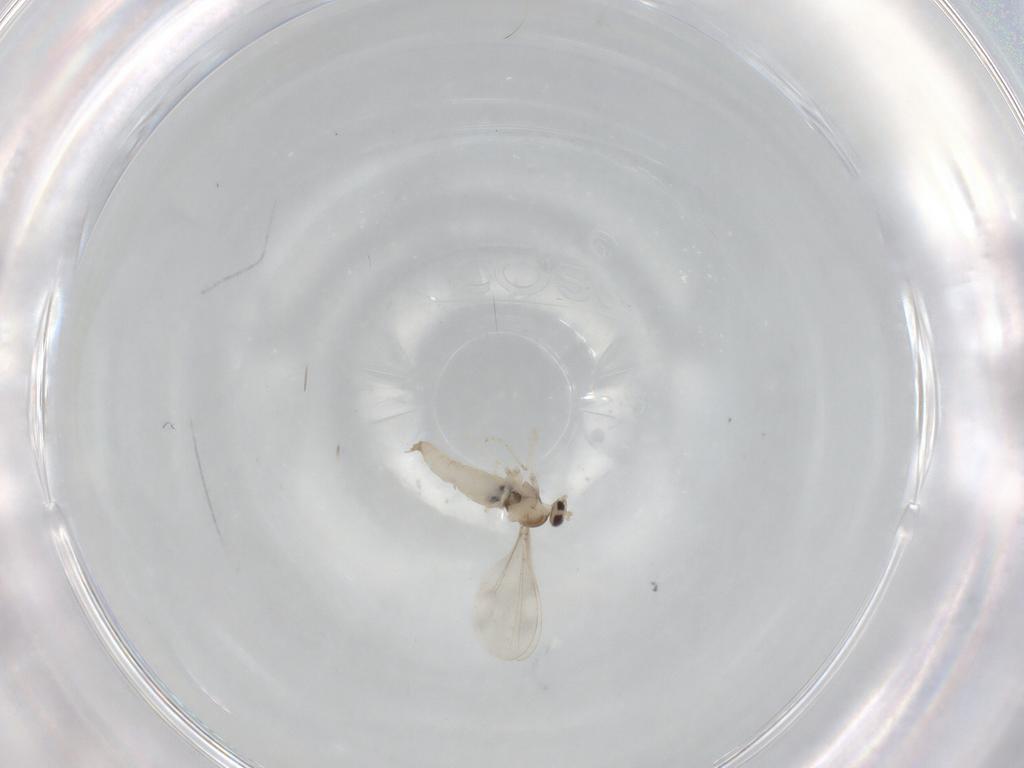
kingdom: Animalia
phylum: Arthropoda
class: Insecta
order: Diptera
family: Cecidomyiidae
